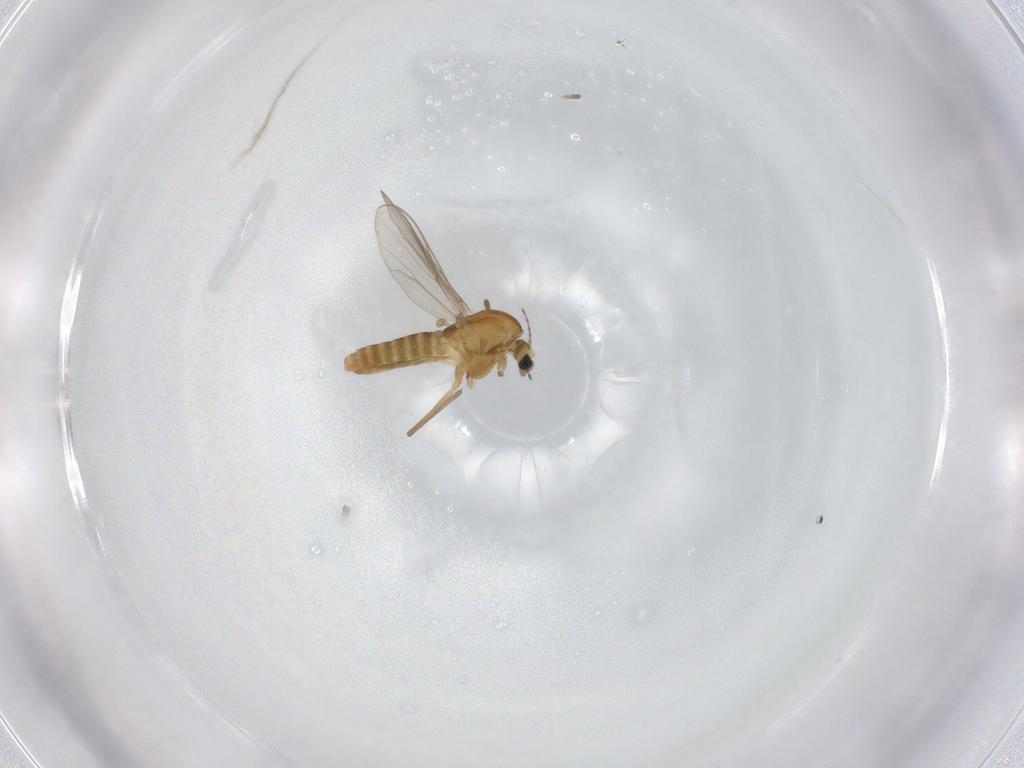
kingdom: Animalia
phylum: Arthropoda
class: Insecta
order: Diptera
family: Chironomidae
